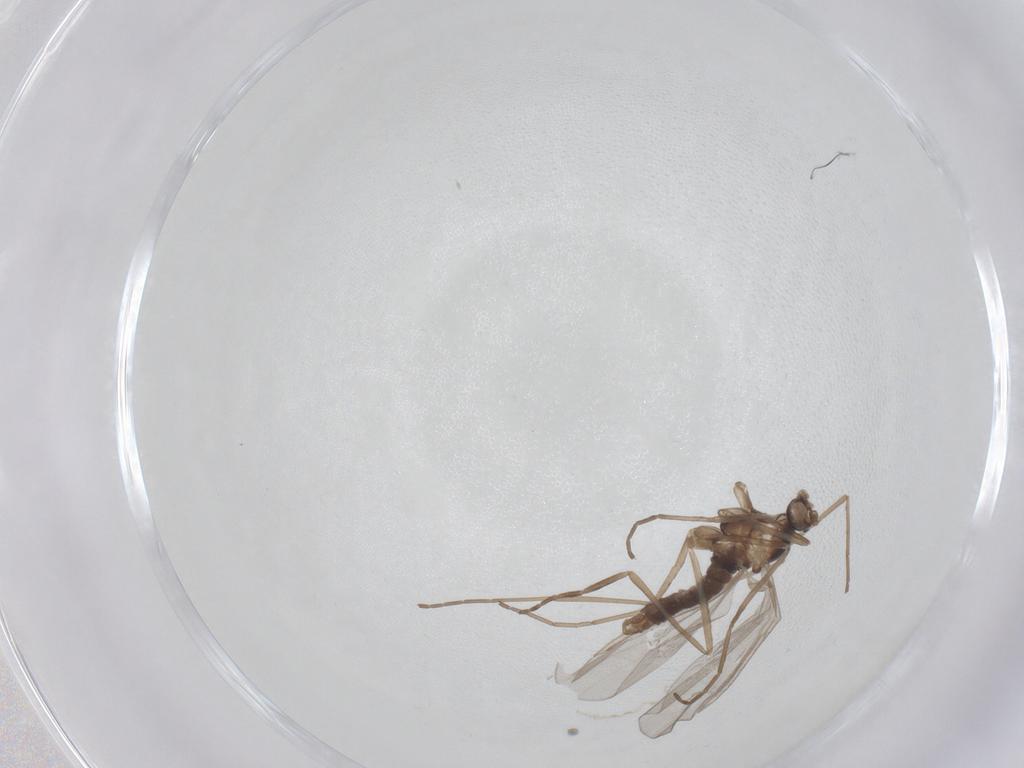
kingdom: Animalia
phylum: Arthropoda
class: Insecta
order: Diptera
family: Cecidomyiidae
